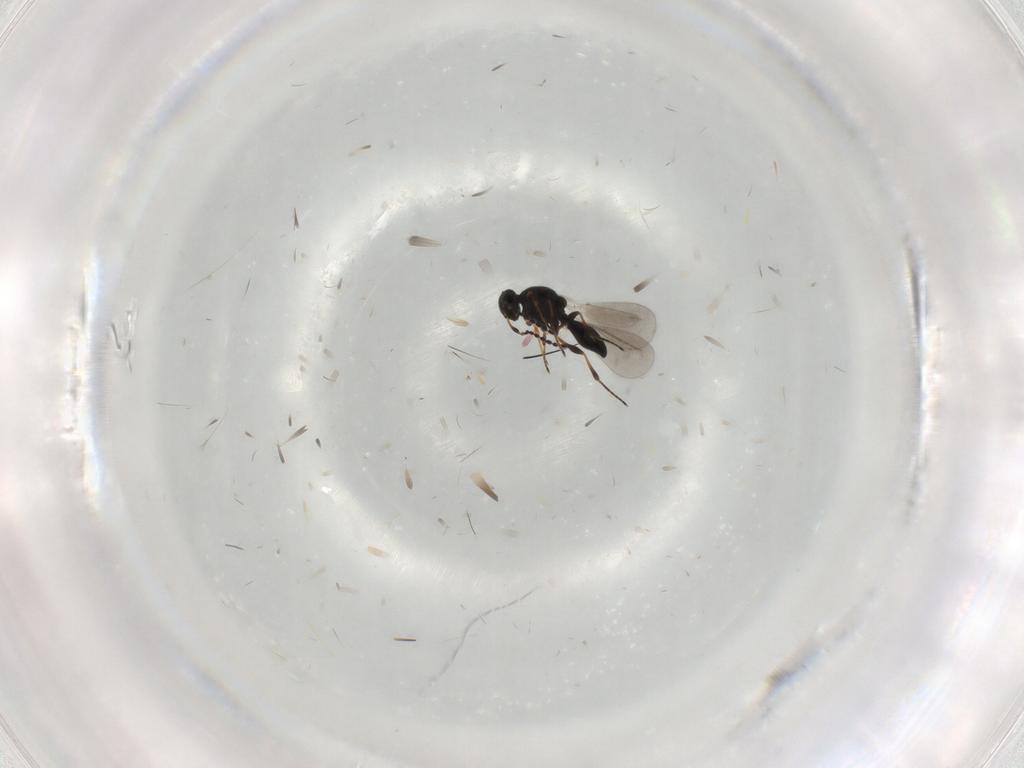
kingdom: Animalia
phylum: Arthropoda
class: Insecta
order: Hymenoptera
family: Platygastridae
